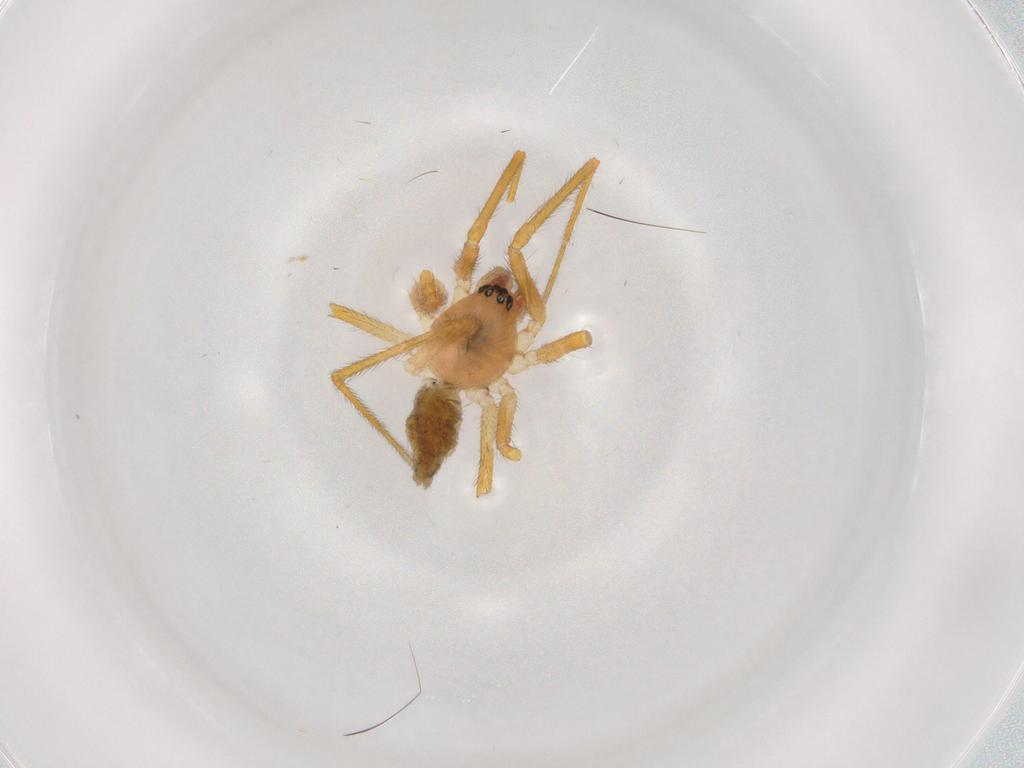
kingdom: Animalia
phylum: Arthropoda
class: Arachnida
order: Araneae
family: Linyphiidae
